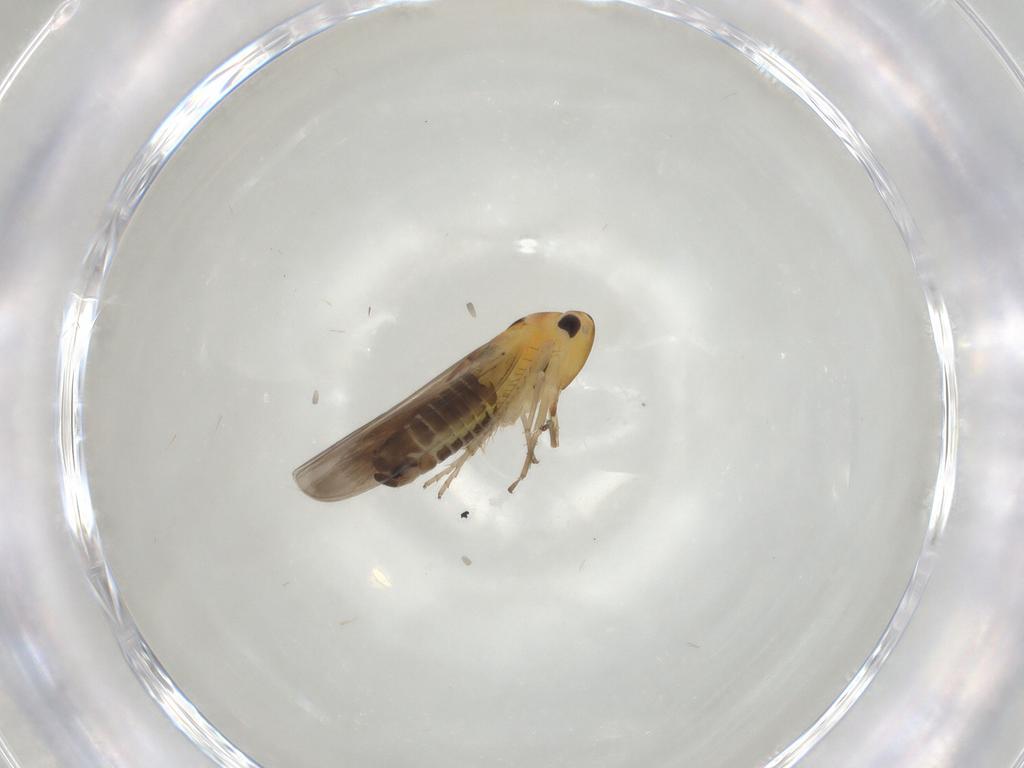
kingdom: Animalia
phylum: Arthropoda
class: Insecta
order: Hemiptera
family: Cicadellidae
